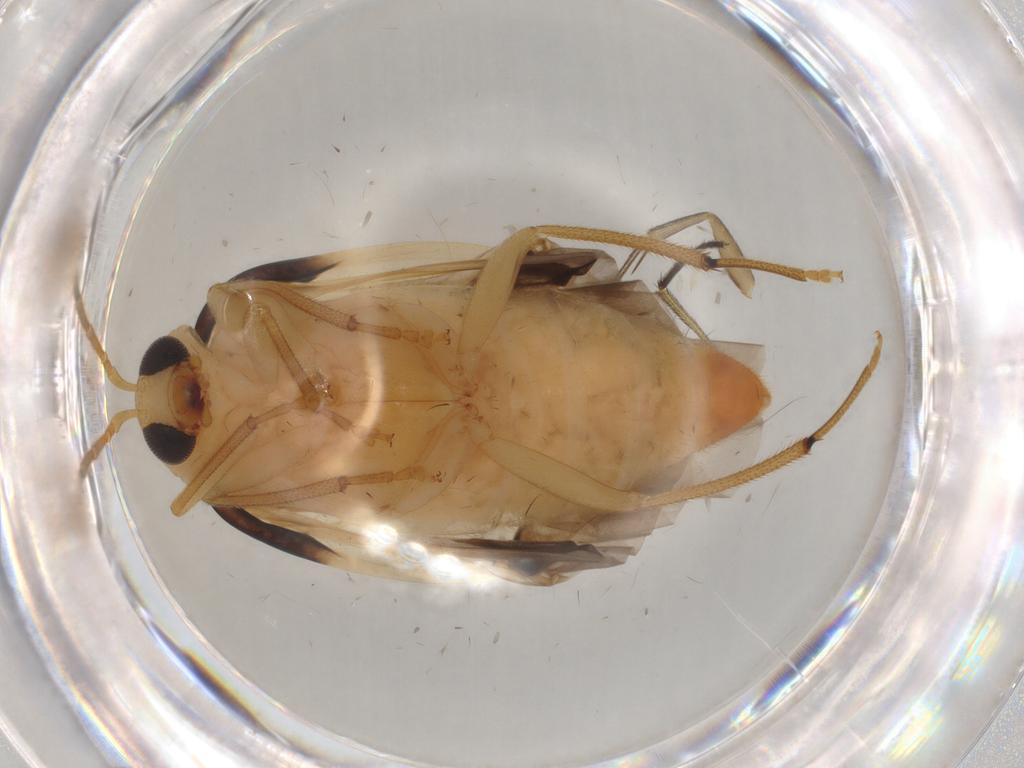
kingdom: Animalia
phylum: Arthropoda
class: Insecta
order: Coleoptera
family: Chrysomelidae
